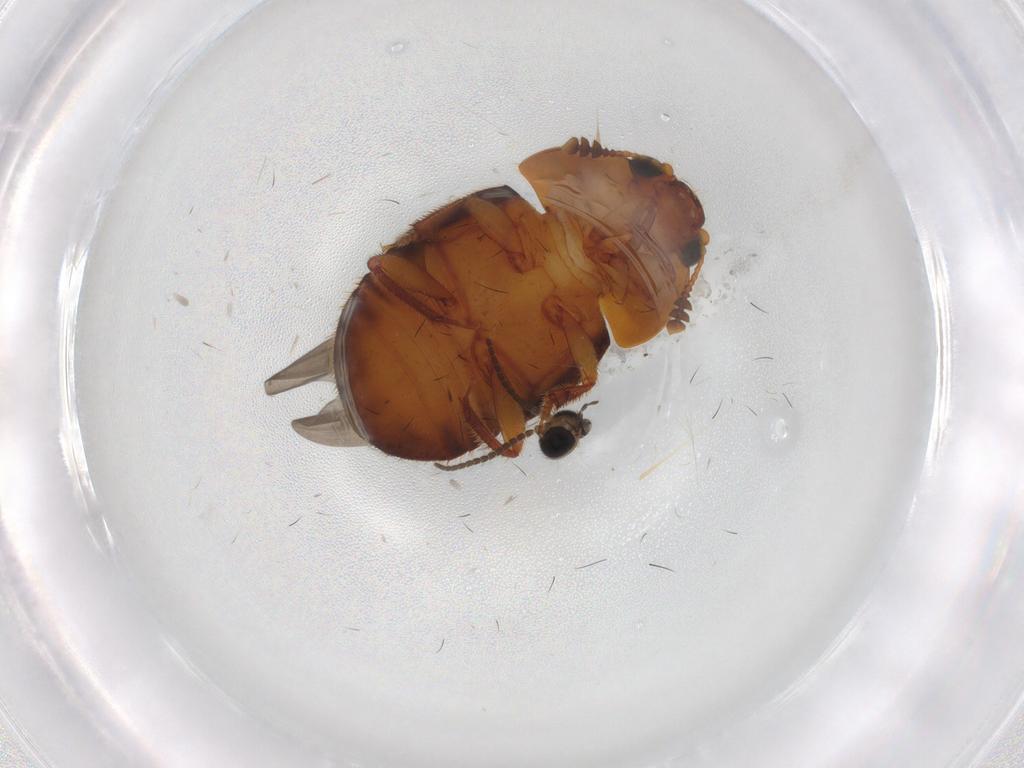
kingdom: Animalia
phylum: Arthropoda
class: Insecta
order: Coleoptera
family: Nitidulidae
